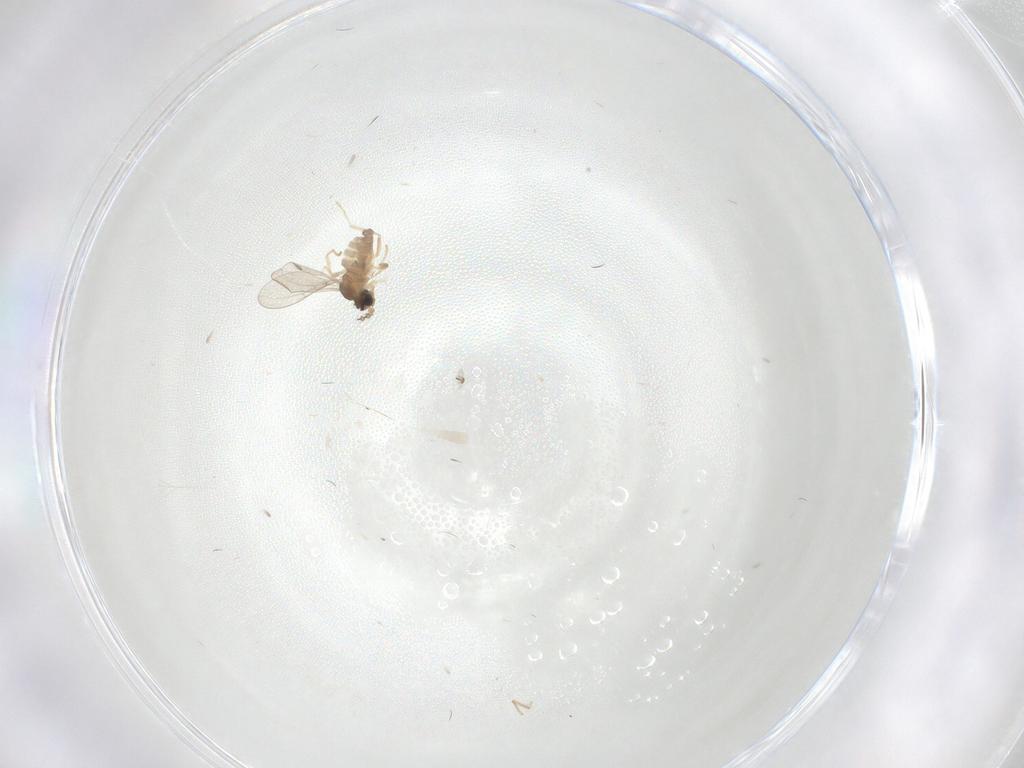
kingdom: Animalia
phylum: Arthropoda
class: Insecta
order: Diptera
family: Cecidomyiidae
